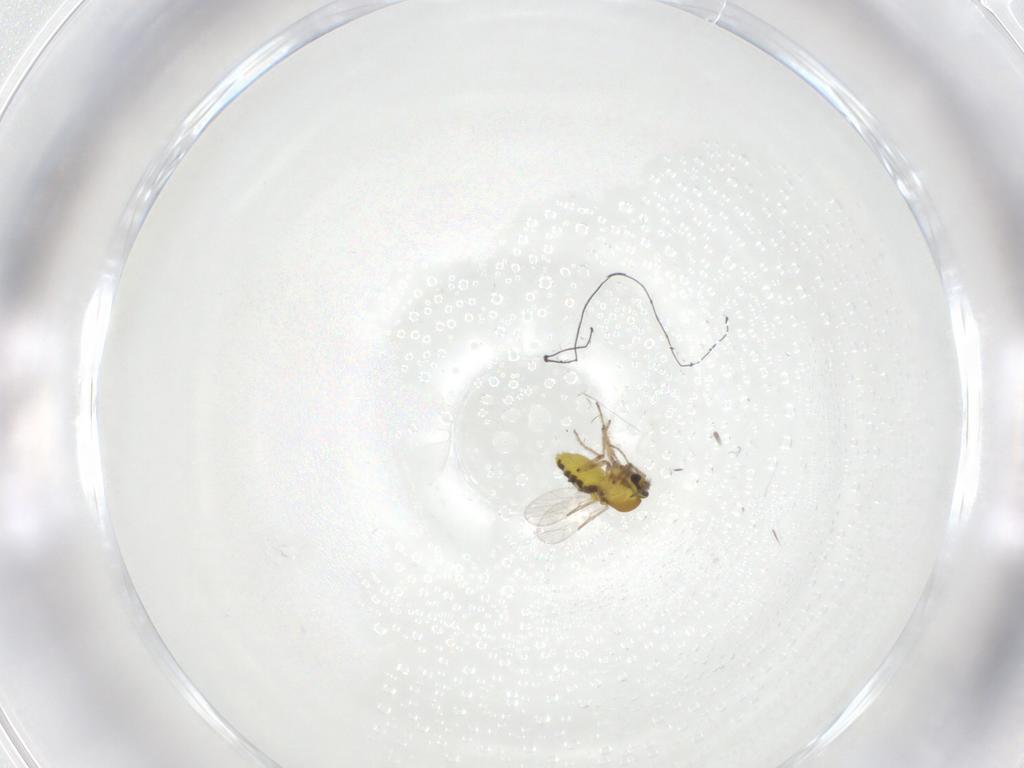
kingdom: Animalia
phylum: Arthropoda
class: Insecta
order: Diptera
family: Ceratopogonidae
